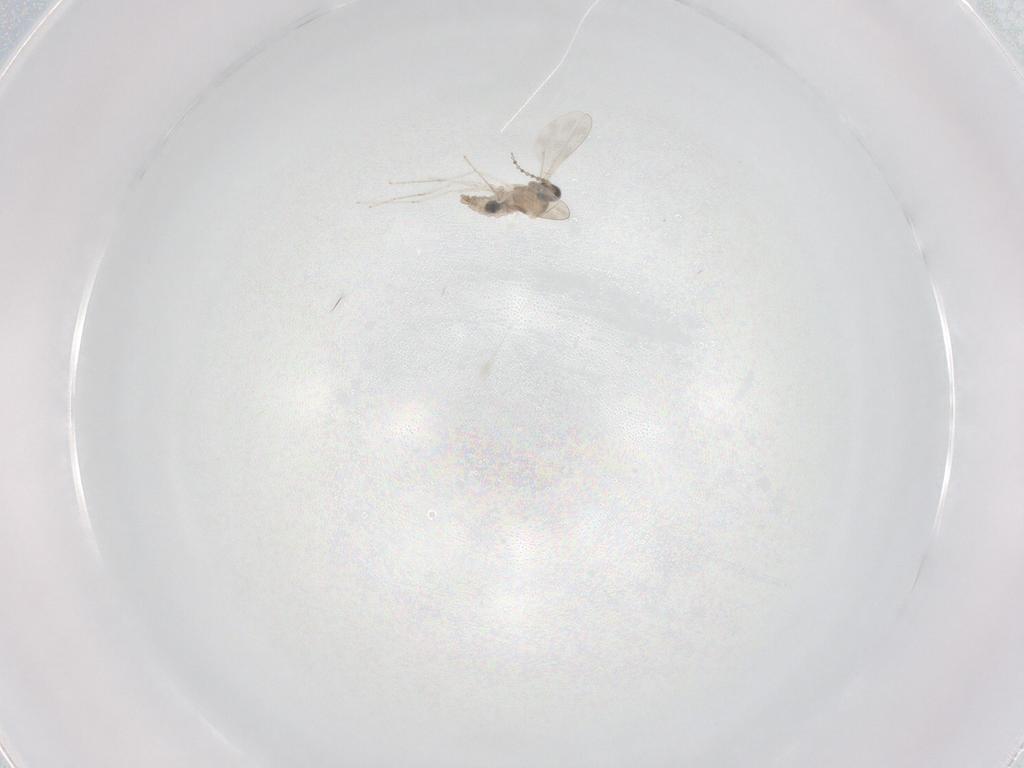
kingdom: Animalia
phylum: Arthropoda
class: Insecta
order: Diptera
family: Cecidomyiidae
